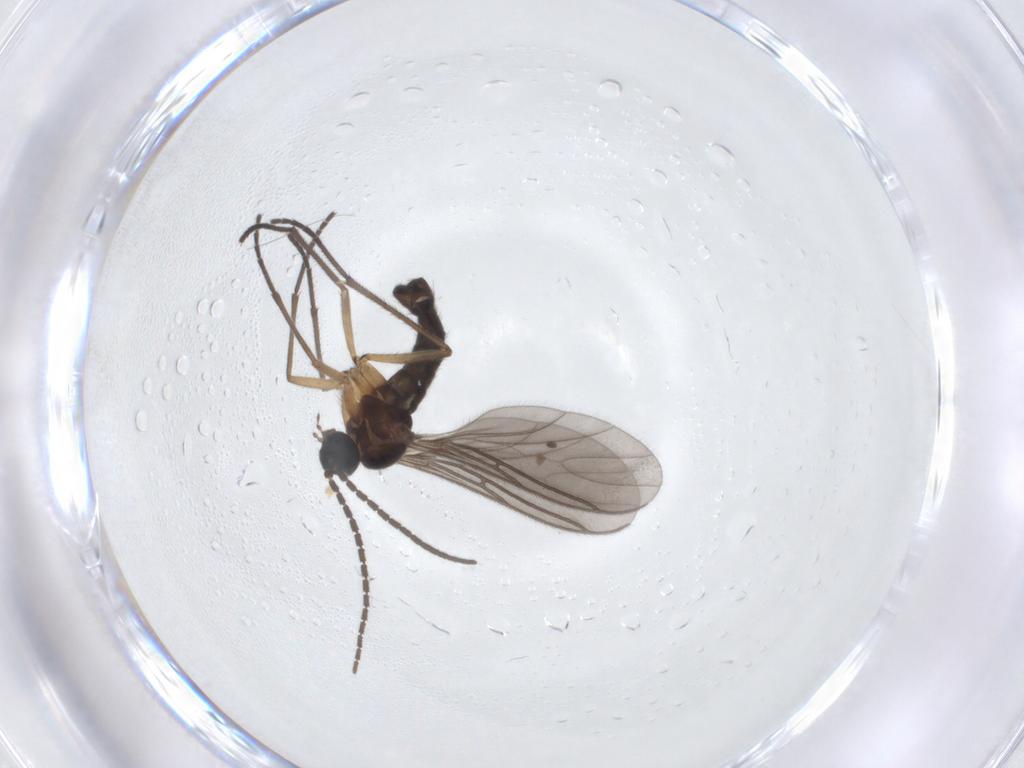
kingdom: Animalia
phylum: Arthropoda
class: Insecta
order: Diptera
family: Sciaridae
